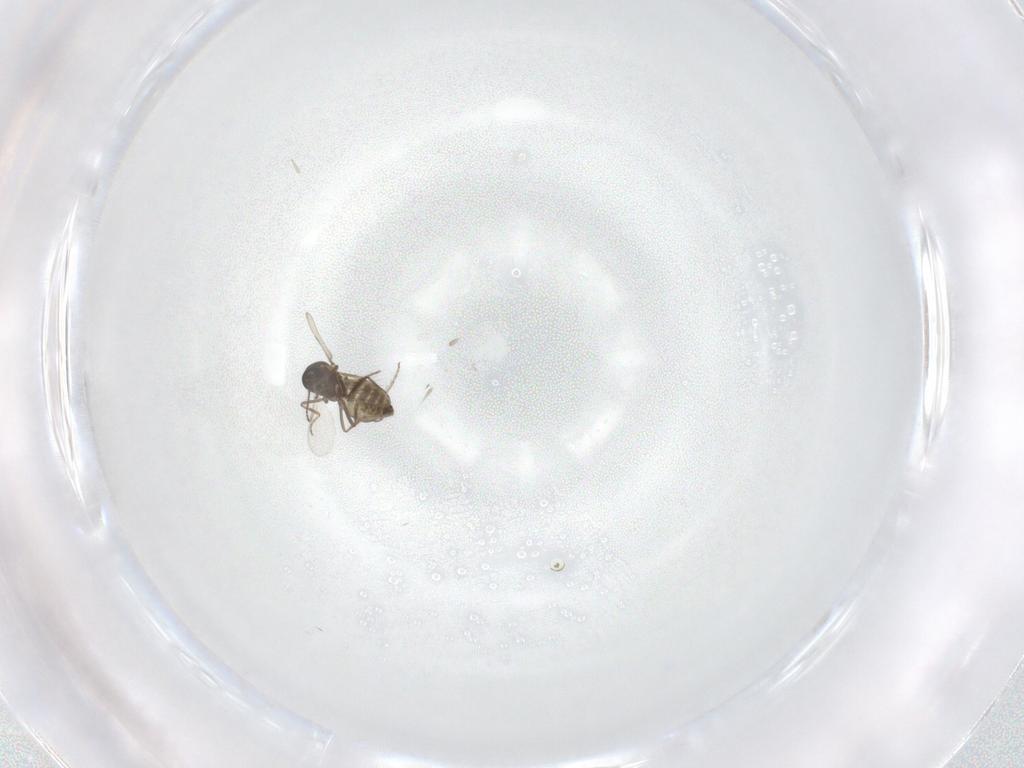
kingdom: Animalia
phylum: Arthropoda
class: Insecta
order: Diptera
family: Ceratopogonidae
